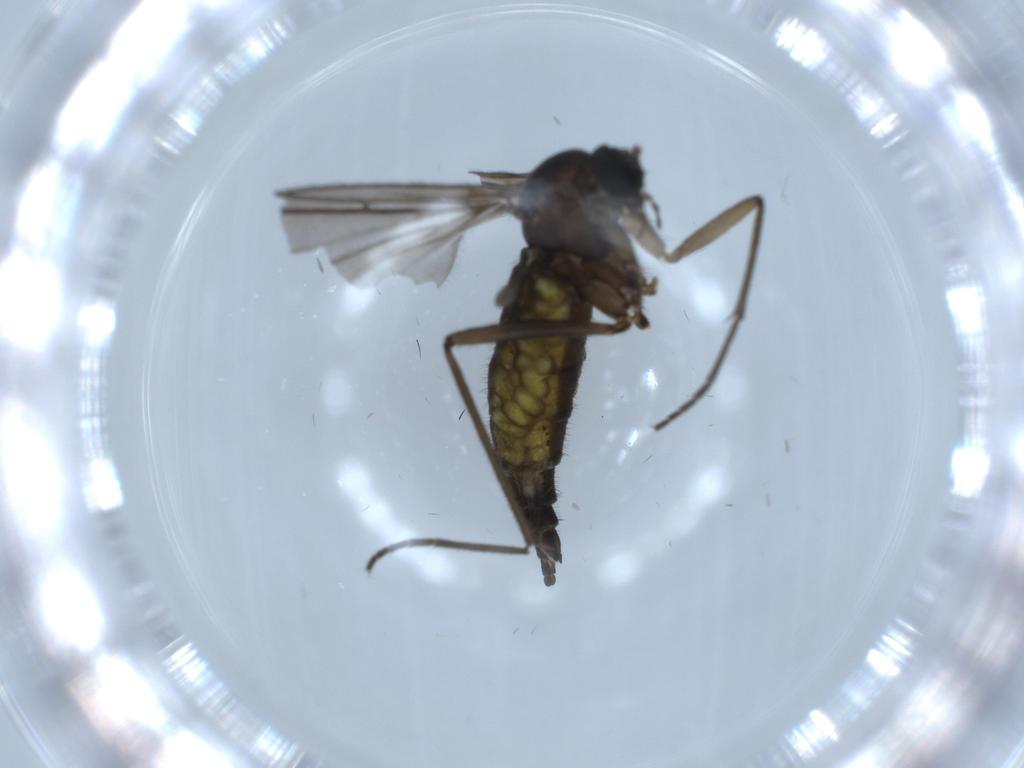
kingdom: Animalia
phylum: Arthropoda
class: Insecta
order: Diptera
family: Sciaridae
